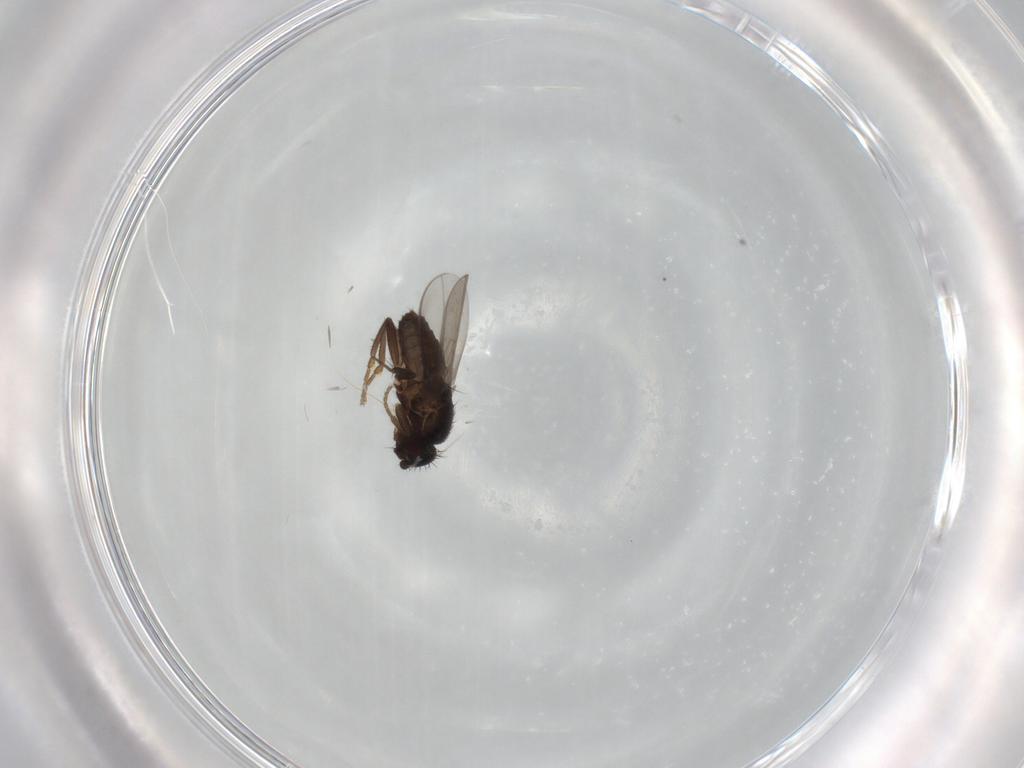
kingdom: Animalia
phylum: Arthropoda
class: Insecta
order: Diptera
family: Sphaeroceridae
